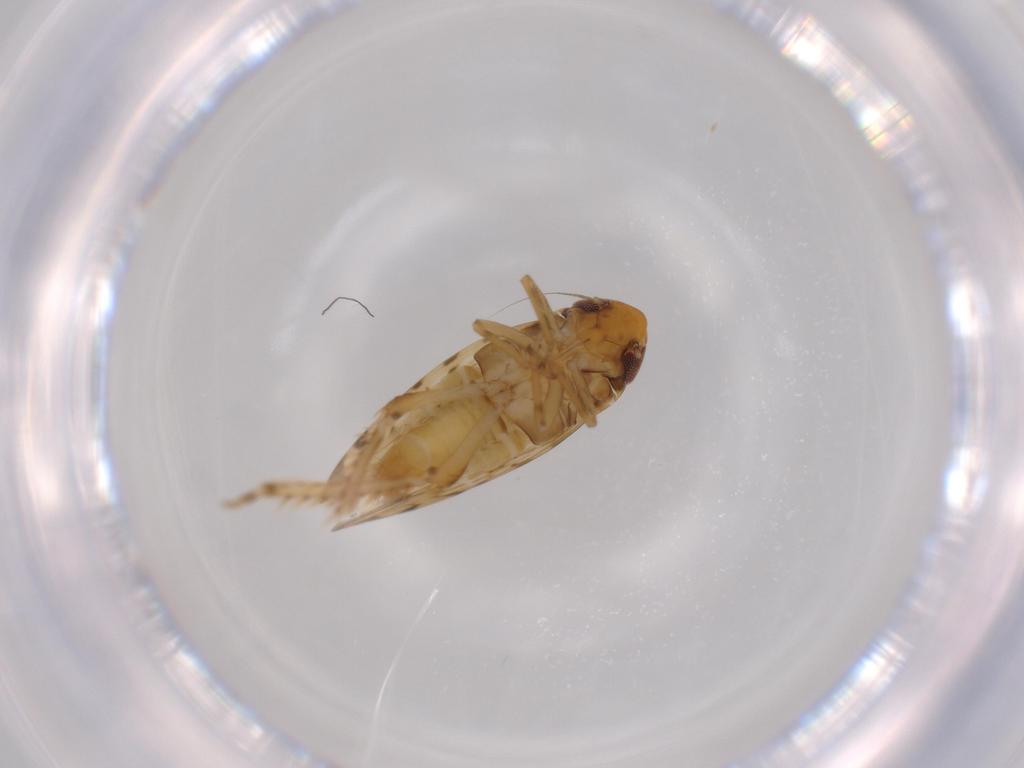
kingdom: Animalia
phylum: Arthropoda
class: Insecta
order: Hemiptera
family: Cicadellidae
